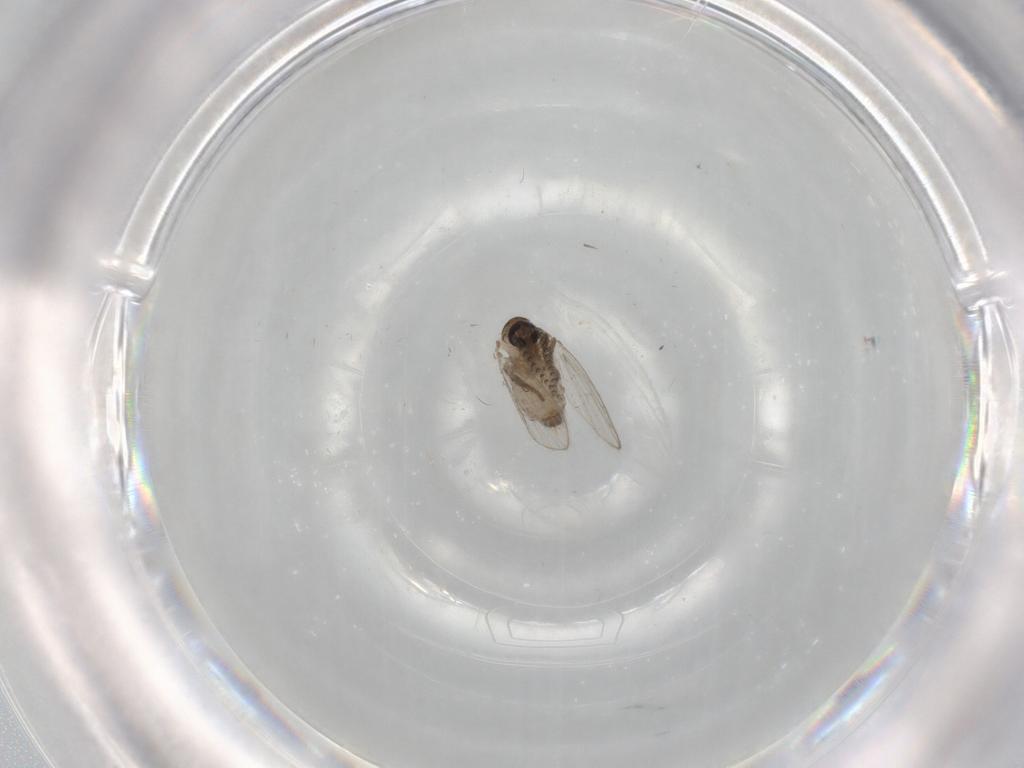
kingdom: Animalia
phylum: Arthropoda
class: Insecta
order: Diptera
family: Psychodidae
